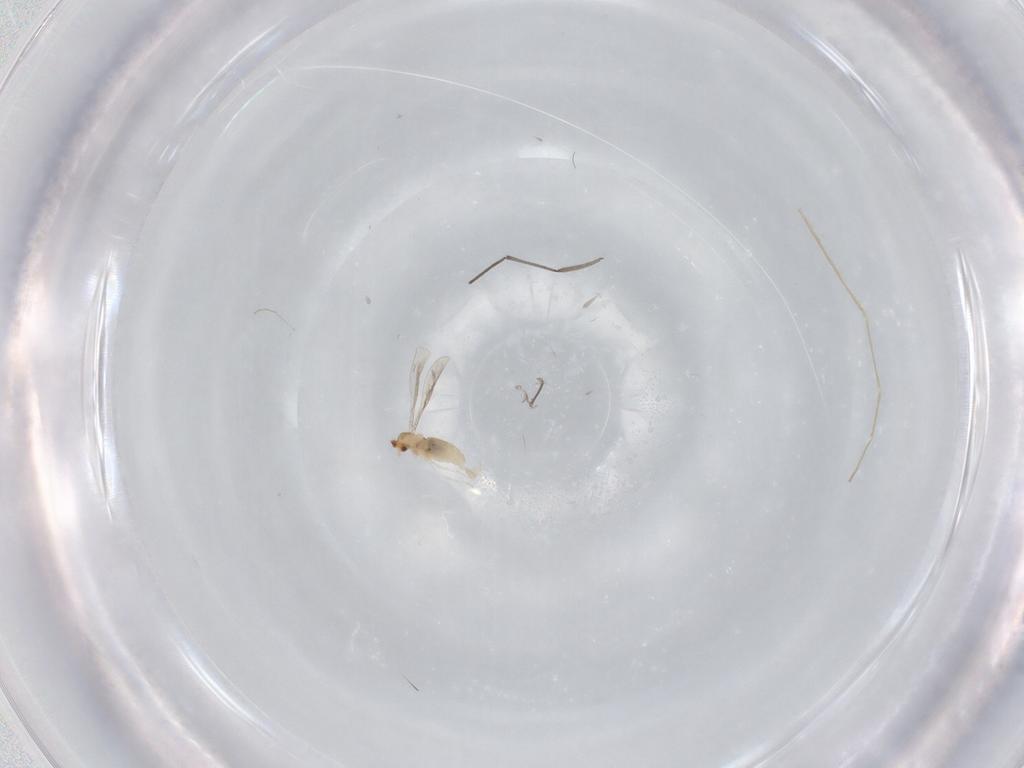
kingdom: Animalia
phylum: Arthropoda
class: Insecta
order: Diptera
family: Cecidomyiidae
